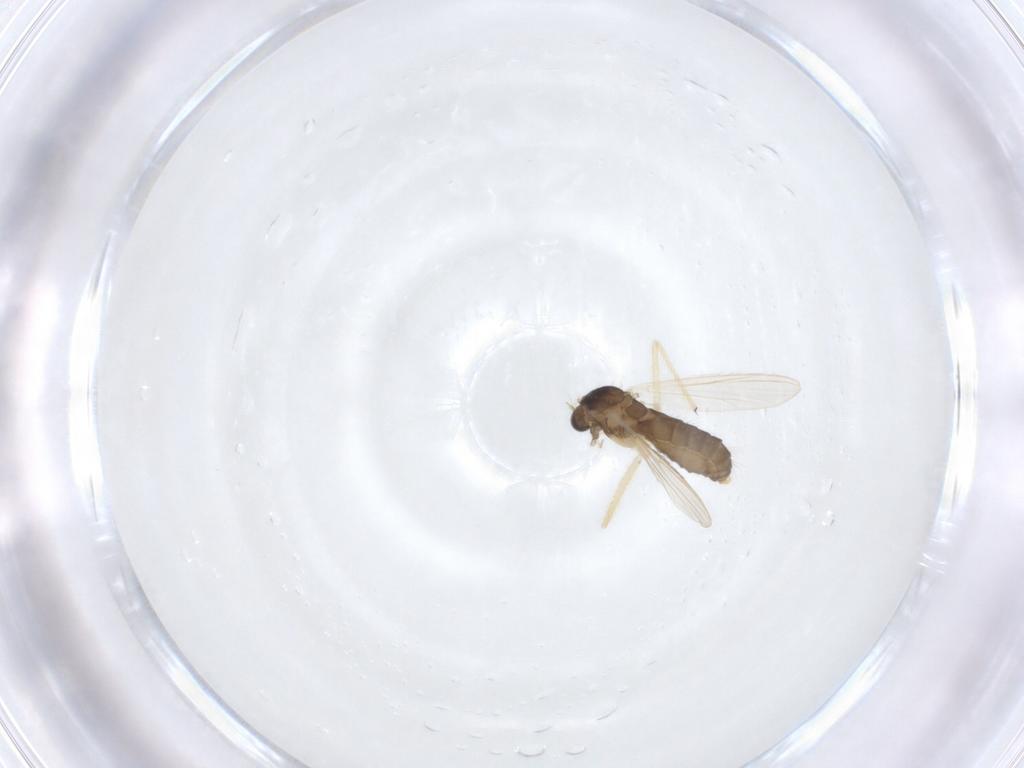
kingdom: Animalia
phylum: Arthropoda
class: Insecta
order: Diptera
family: Chironomidae
